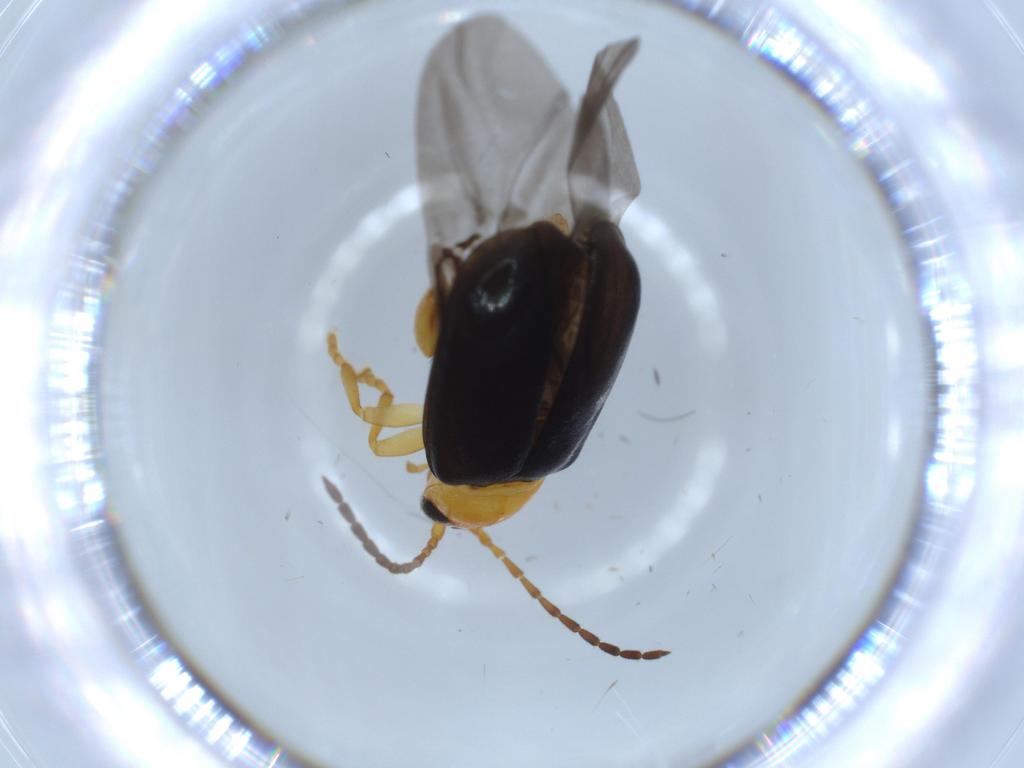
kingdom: Animalia
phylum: Arthropoda
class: Insecta
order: Coleoptera
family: Chrysomelidae
